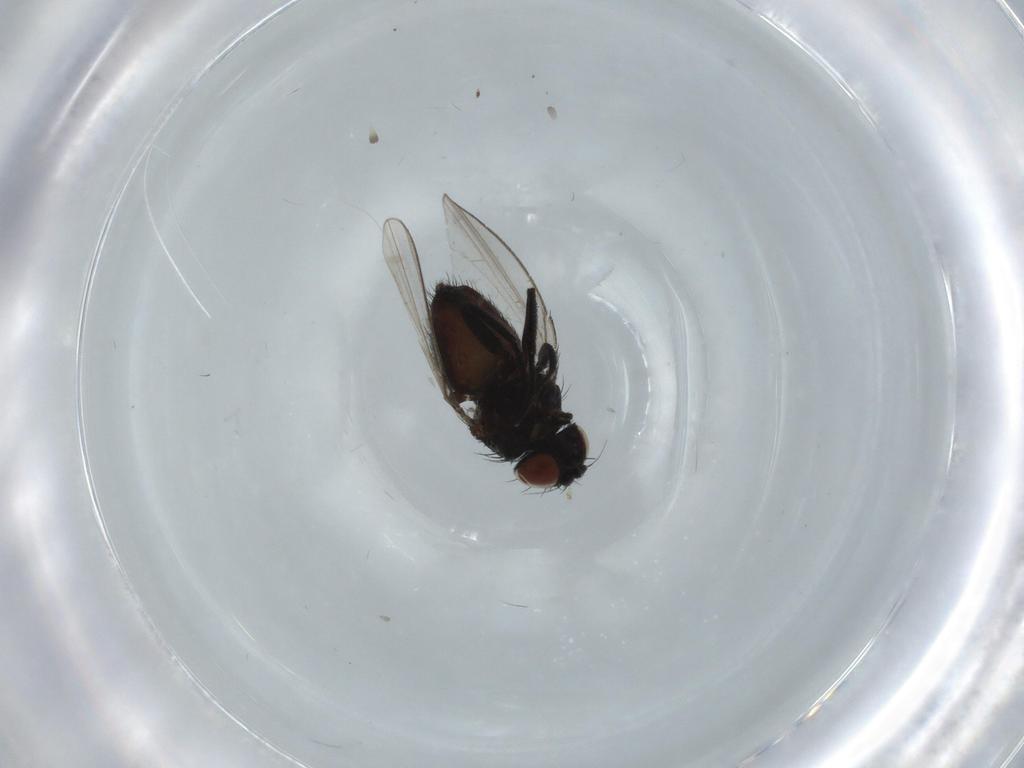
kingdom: Animalia
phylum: Arthropoda
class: Insecta
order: Diptera
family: Milichiidae
